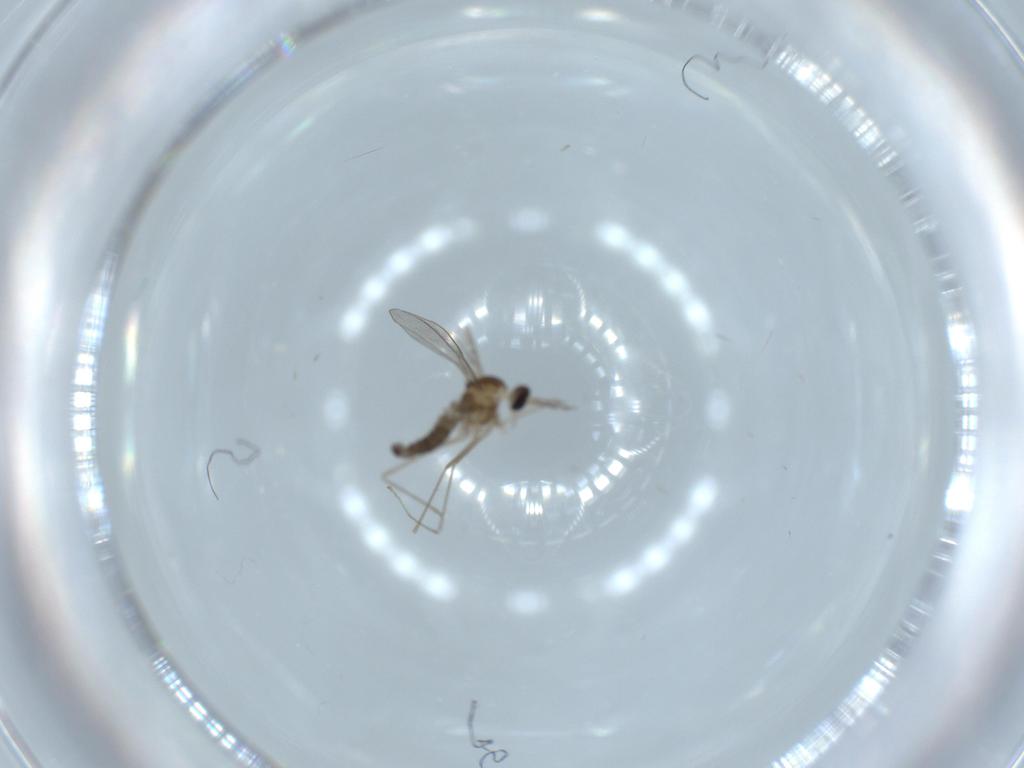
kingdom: Animalia
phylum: Arthropoda
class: Insecta
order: Diptera
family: Cecidomyiidae
